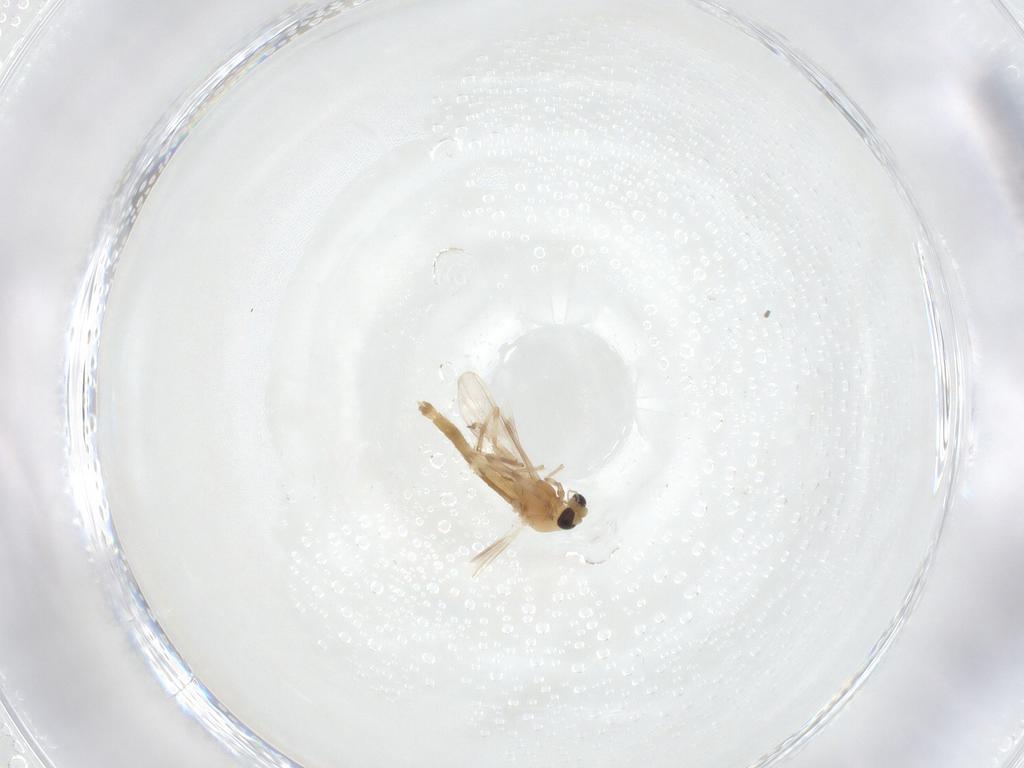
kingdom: Animalia
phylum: Arthropoda
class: Insecta
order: Diptera
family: Chironomidae
